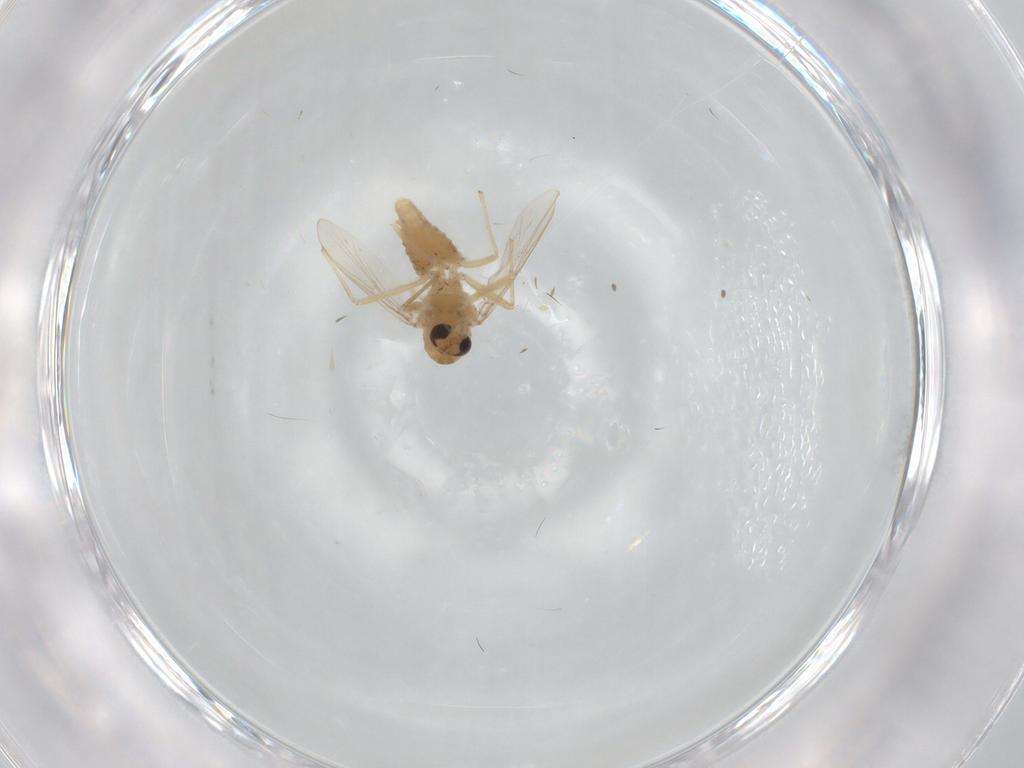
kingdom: Animalia
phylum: Arthropoda
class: Insecta
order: Diptera
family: Chironomidae
